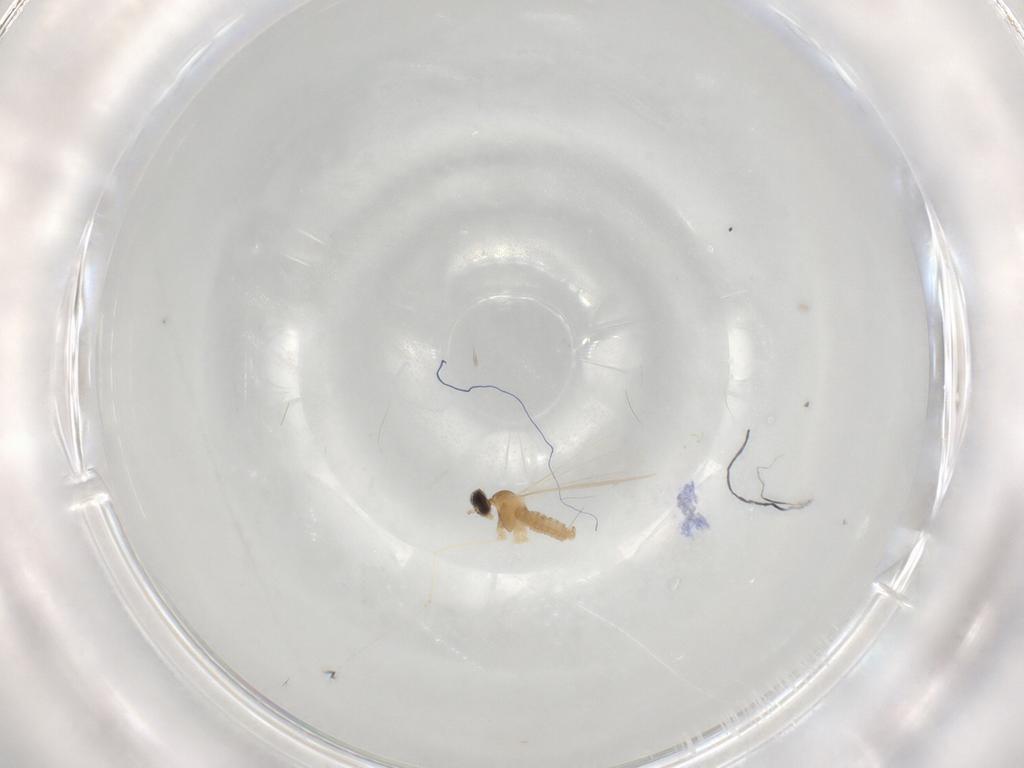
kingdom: Animalia
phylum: Arthropoda
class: Insecta
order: Diptera
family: Cecidomyiidae
